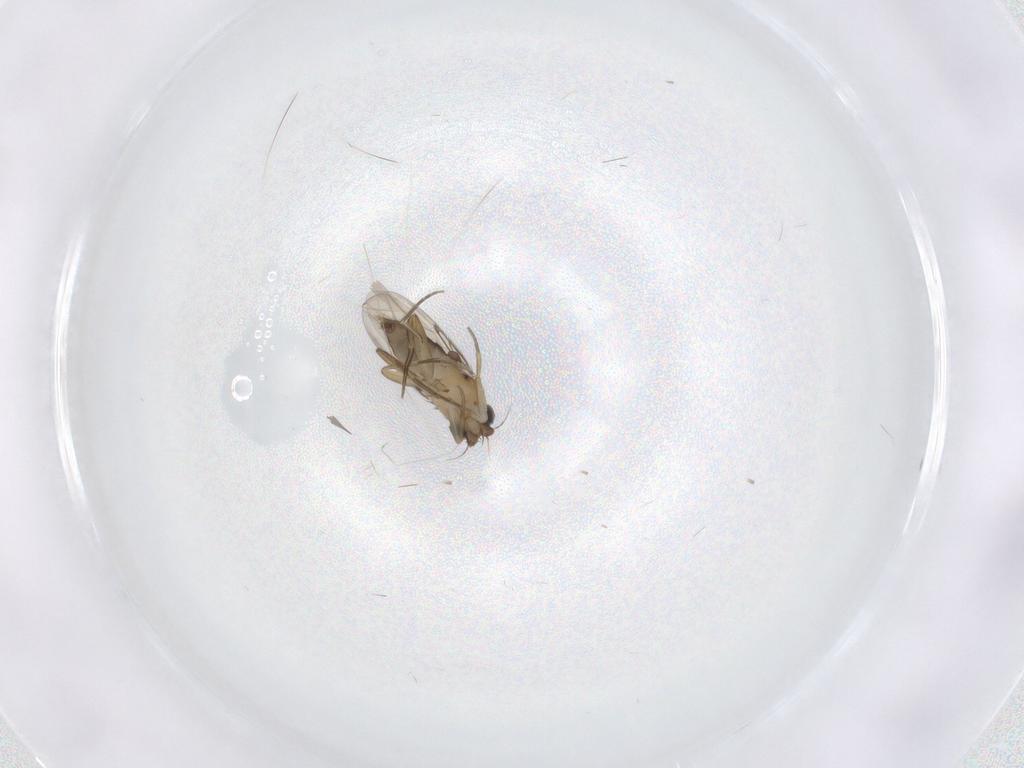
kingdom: Animalia
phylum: Arthropoda
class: Insecta
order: Diptera
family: Phoridae
